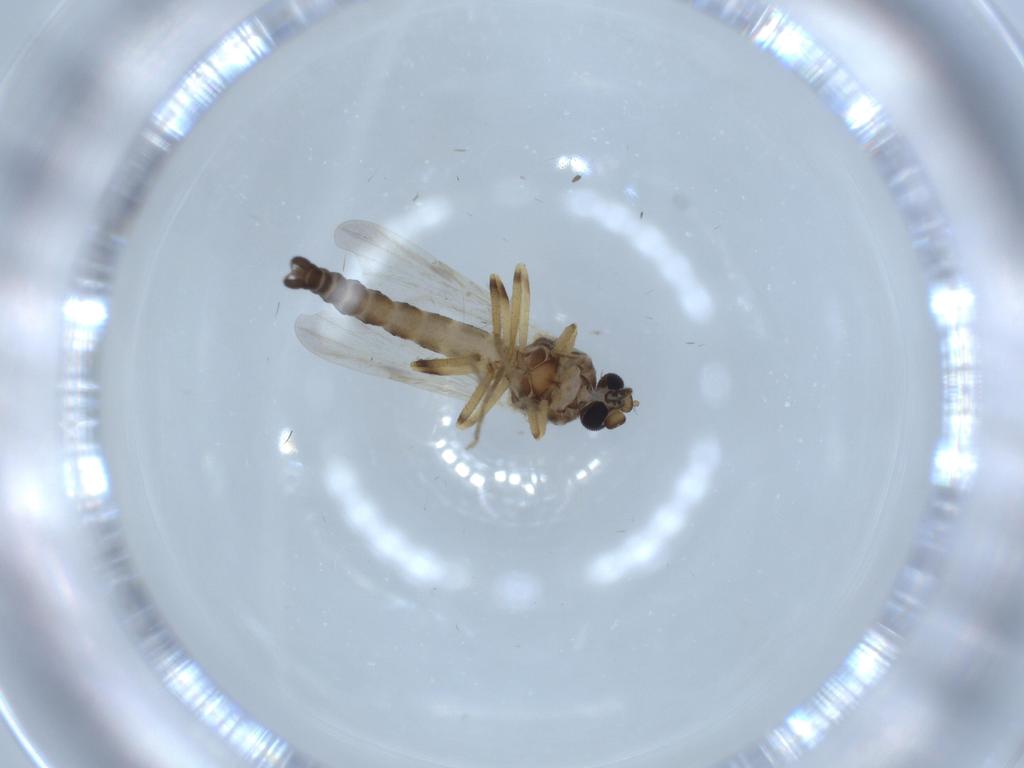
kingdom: Animalia
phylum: Arthropoda
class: Insecta
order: Diptera
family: Ceratopogonidae
